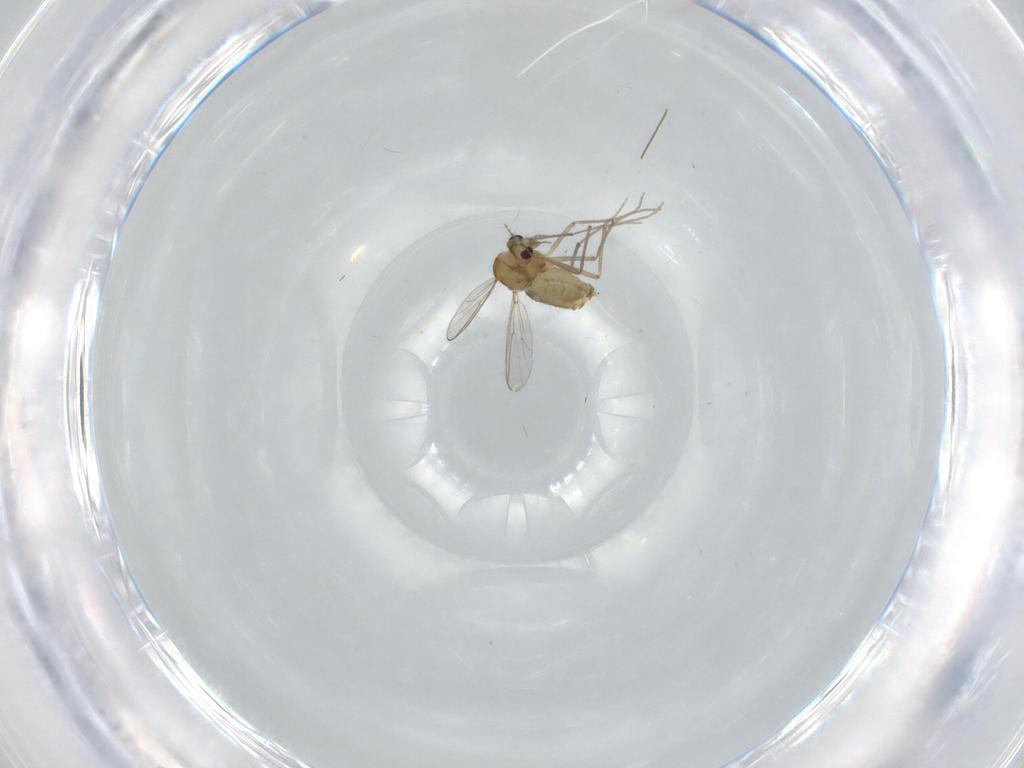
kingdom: Animalia
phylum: Arthropoda
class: Insecta
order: Diptera
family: Chironomidae
